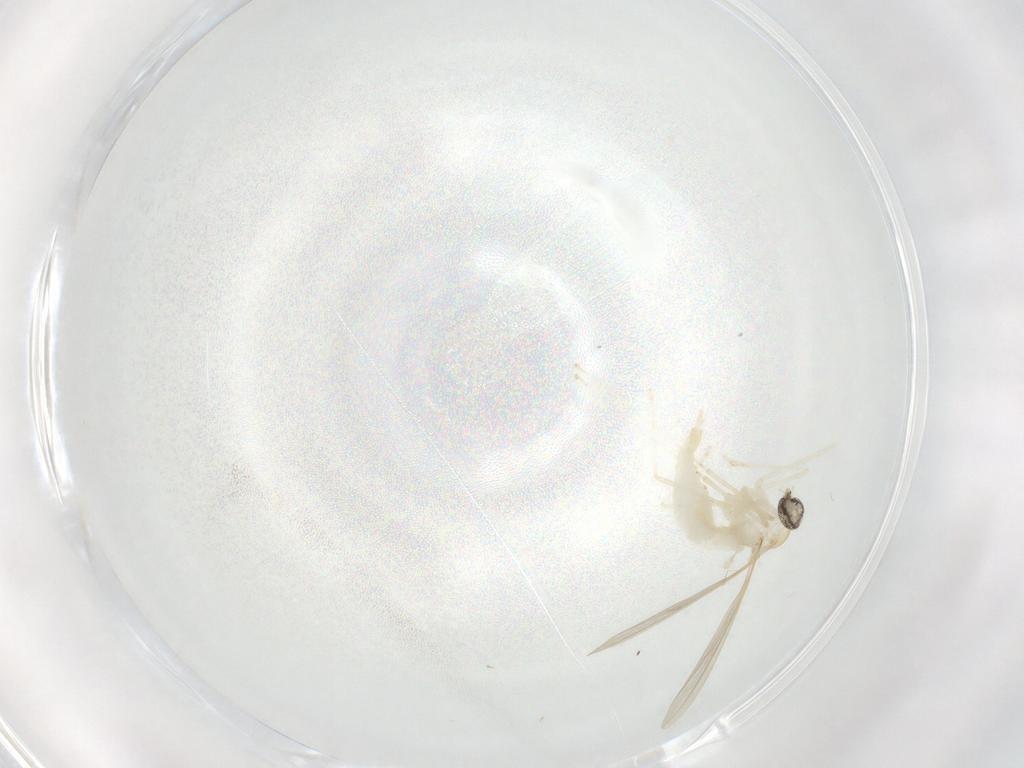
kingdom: Animalia
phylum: Arthropoda
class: Insecta
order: Diptera
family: Cecidomyiidae
